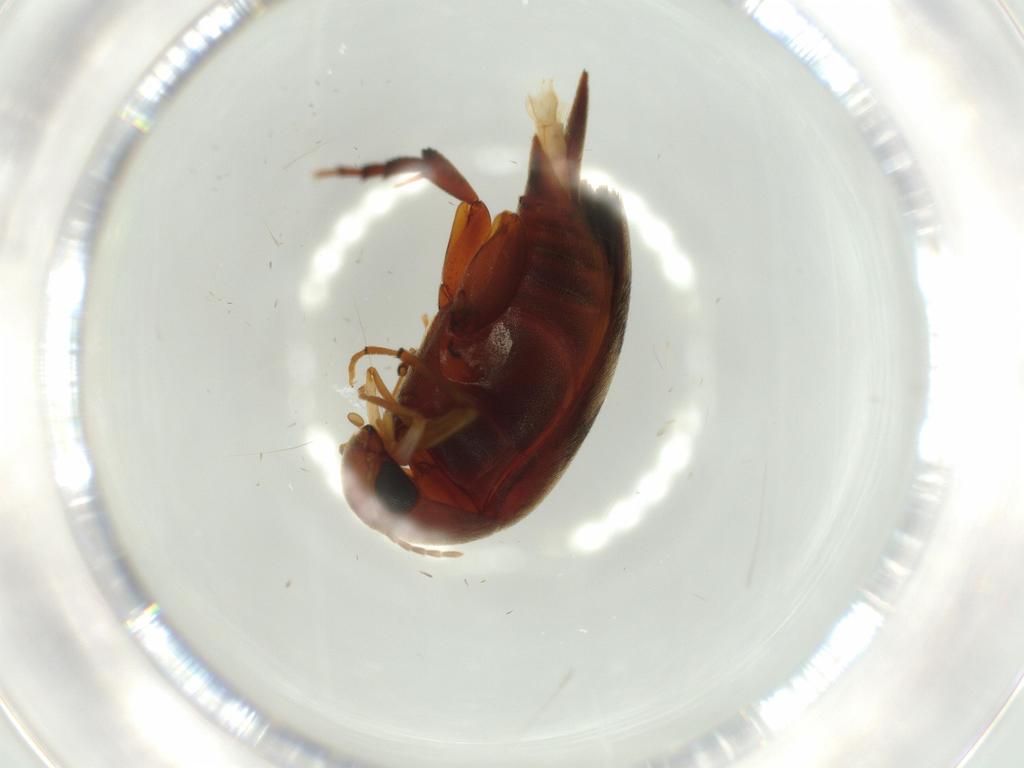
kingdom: Animalia
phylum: Arthropoda
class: Insecta
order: Coleoptera
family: Mordellidae
